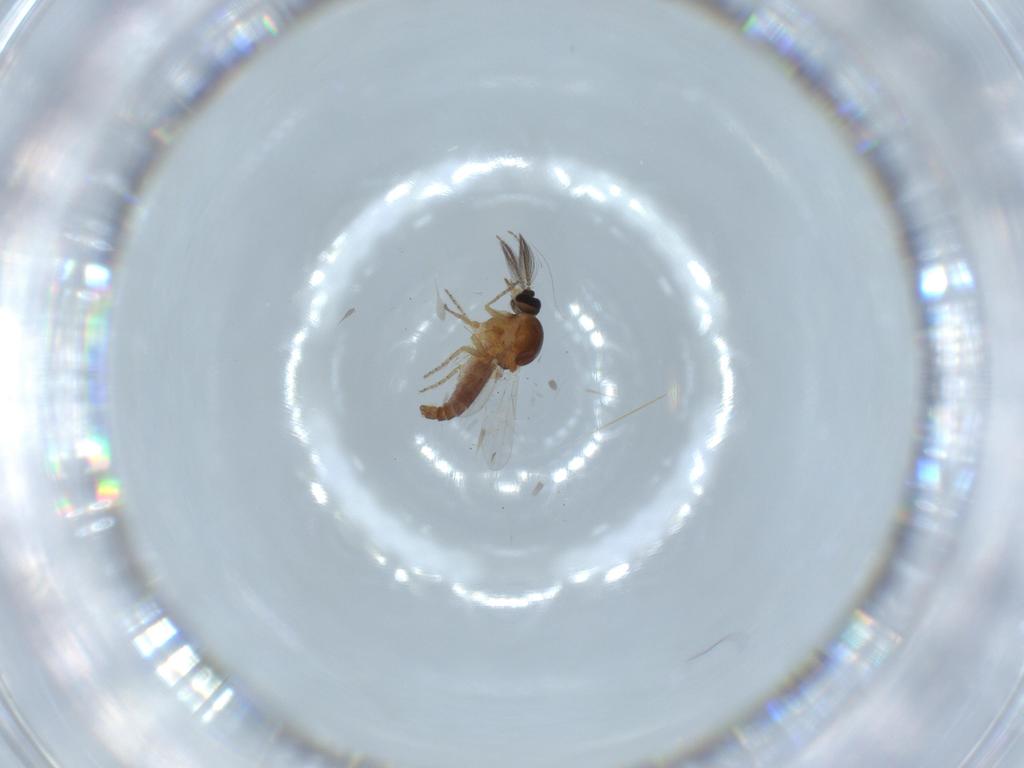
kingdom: Animalia
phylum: Arthropoda
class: Insecta
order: Diptera
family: Ceratopogonidae
